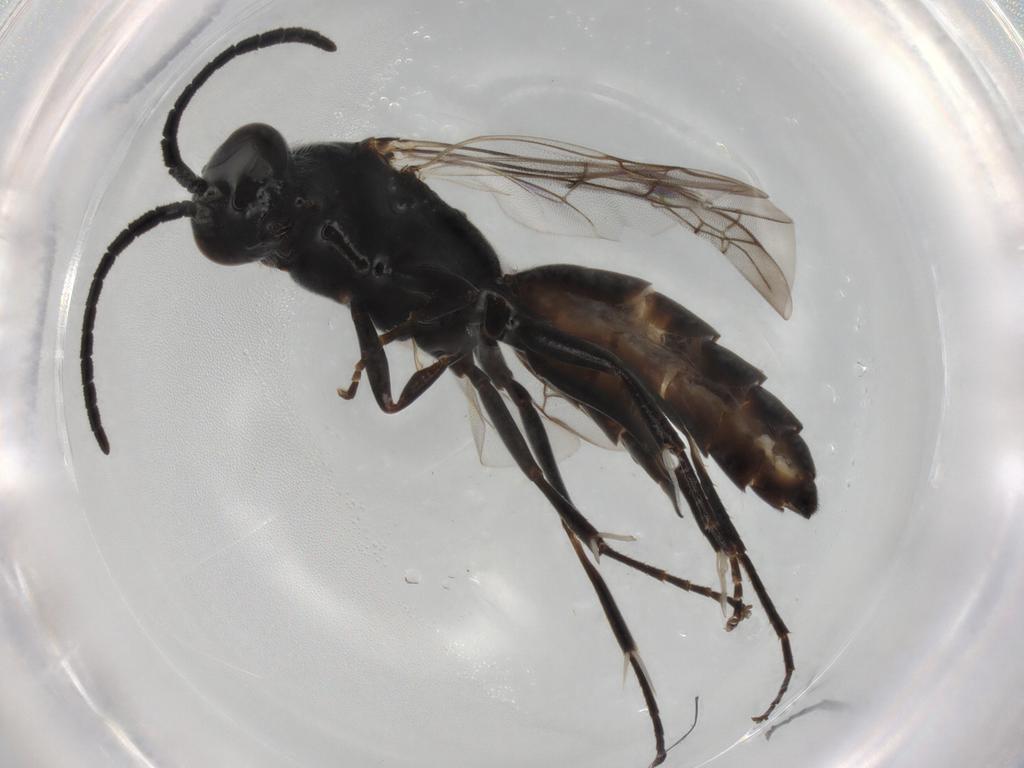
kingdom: Animalia
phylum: Arthropoda
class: Insecta
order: Hymenoptera
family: Pompilidae
